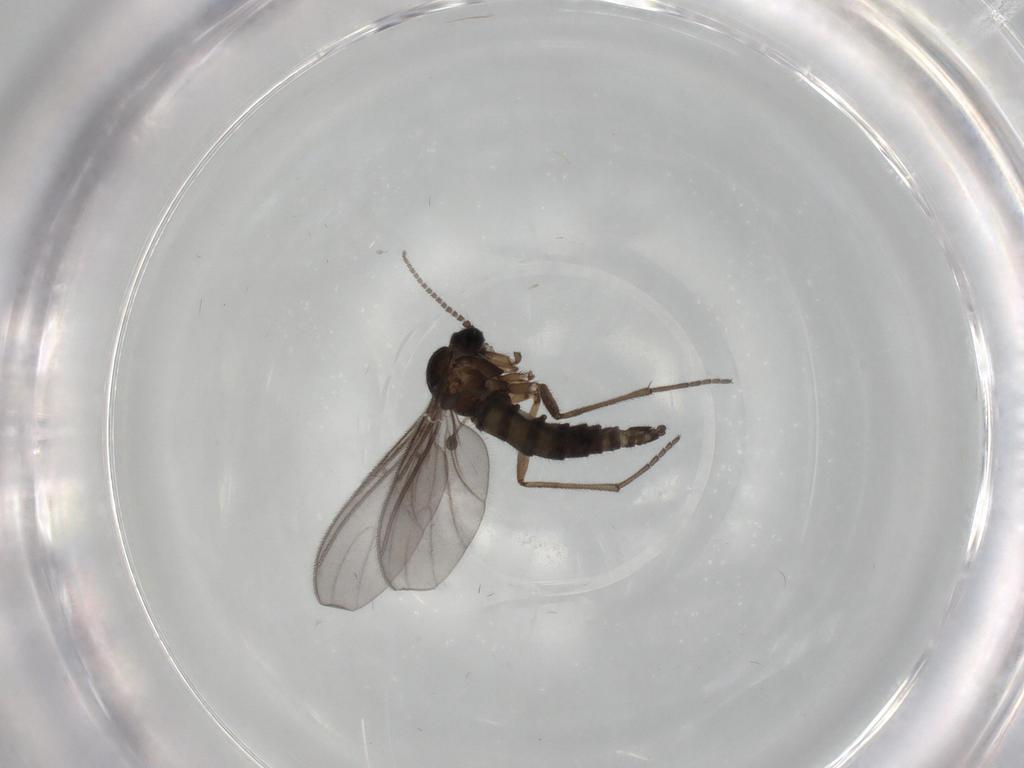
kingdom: Animalia
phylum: Arthropoda
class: Insecta
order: Diptera
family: Sciaridae
